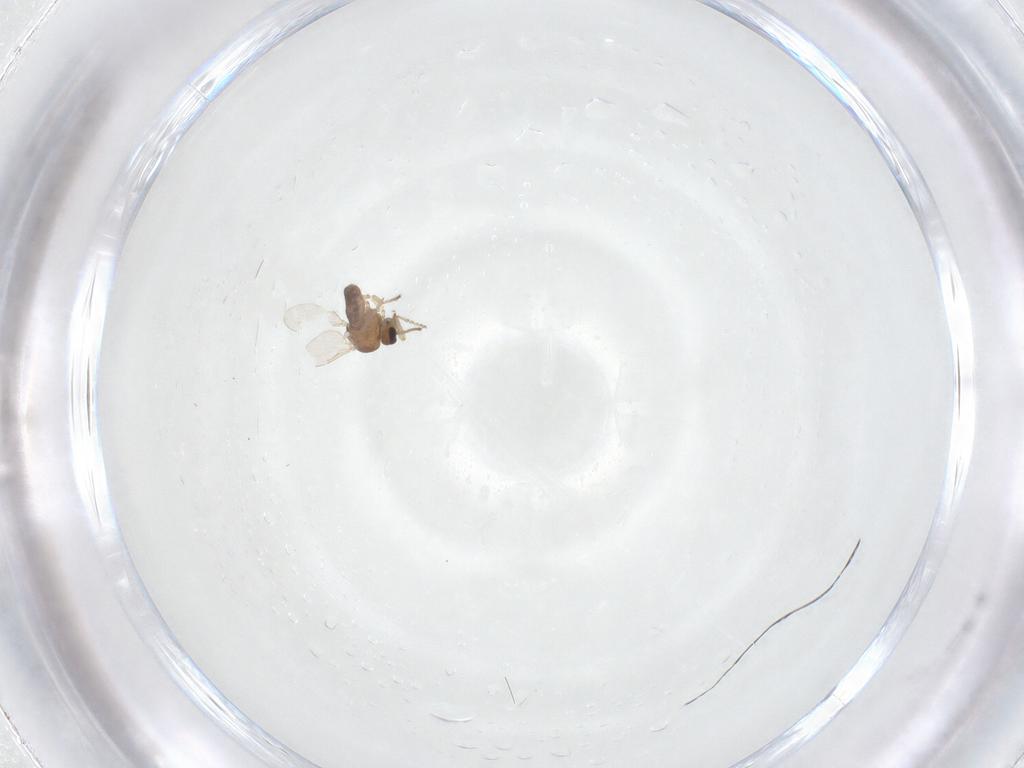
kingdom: Animalia
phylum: Arthropoda
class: Insecta
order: Diptera
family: Ceratopogonidae
